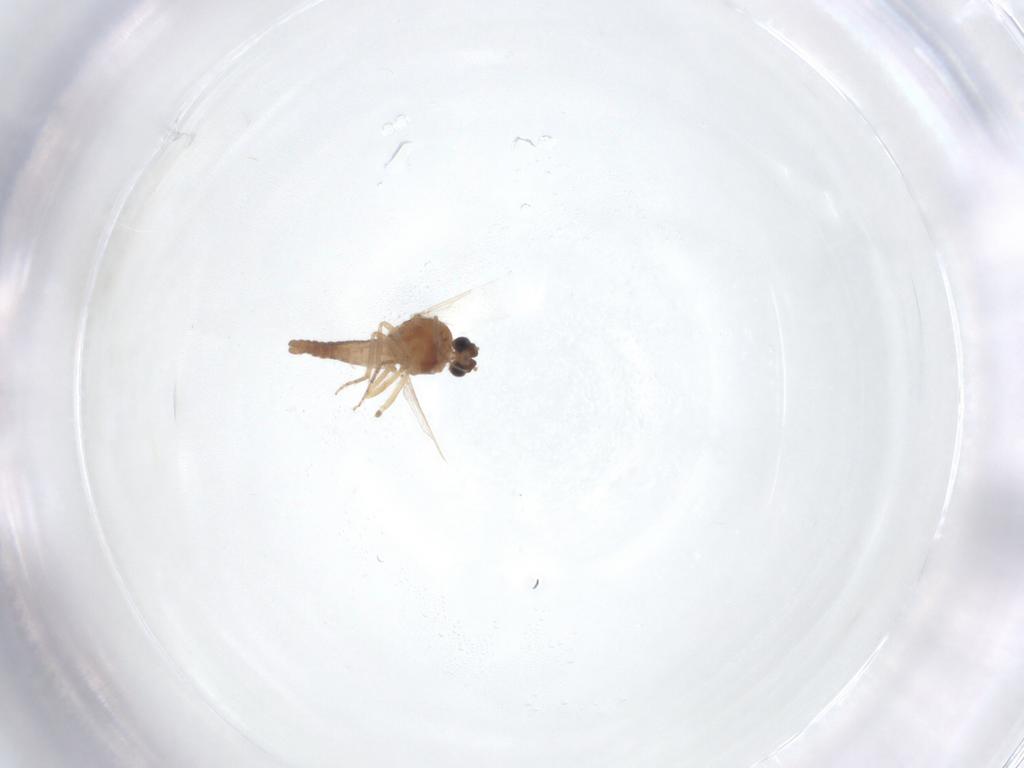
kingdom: Animalia
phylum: Arthropoda
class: Insecta
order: Diptera
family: Ceratopogonidae
